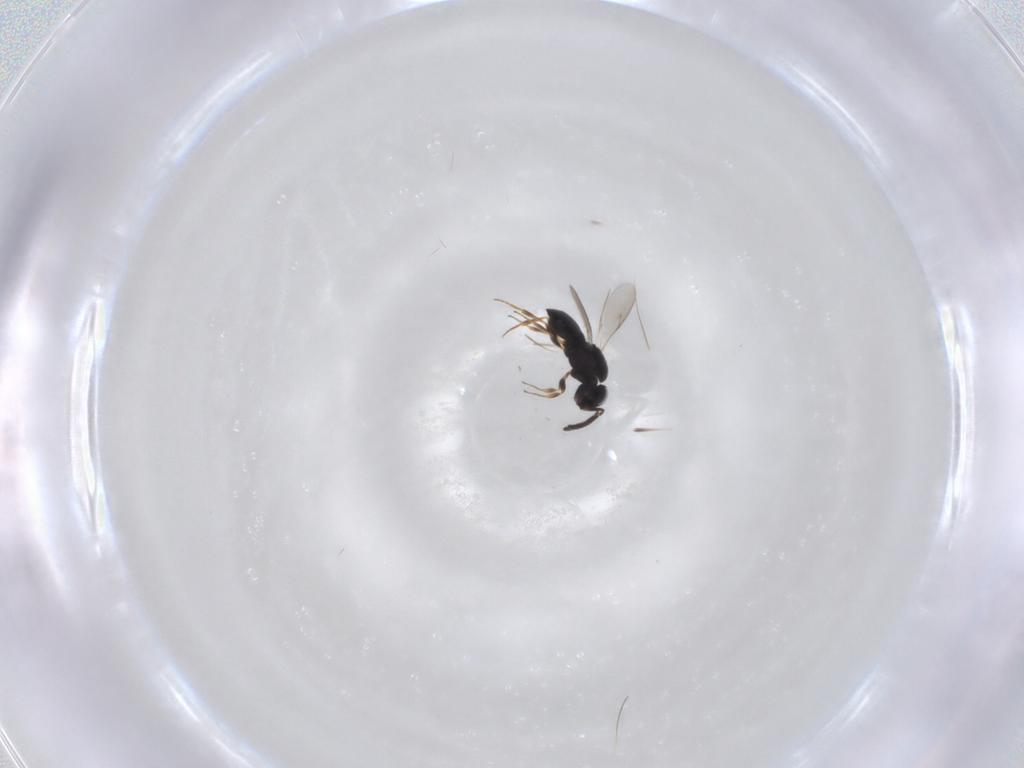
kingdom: Animalia
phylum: Arthropoda
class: Insecta
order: Hymenoptera
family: Scelionidae
